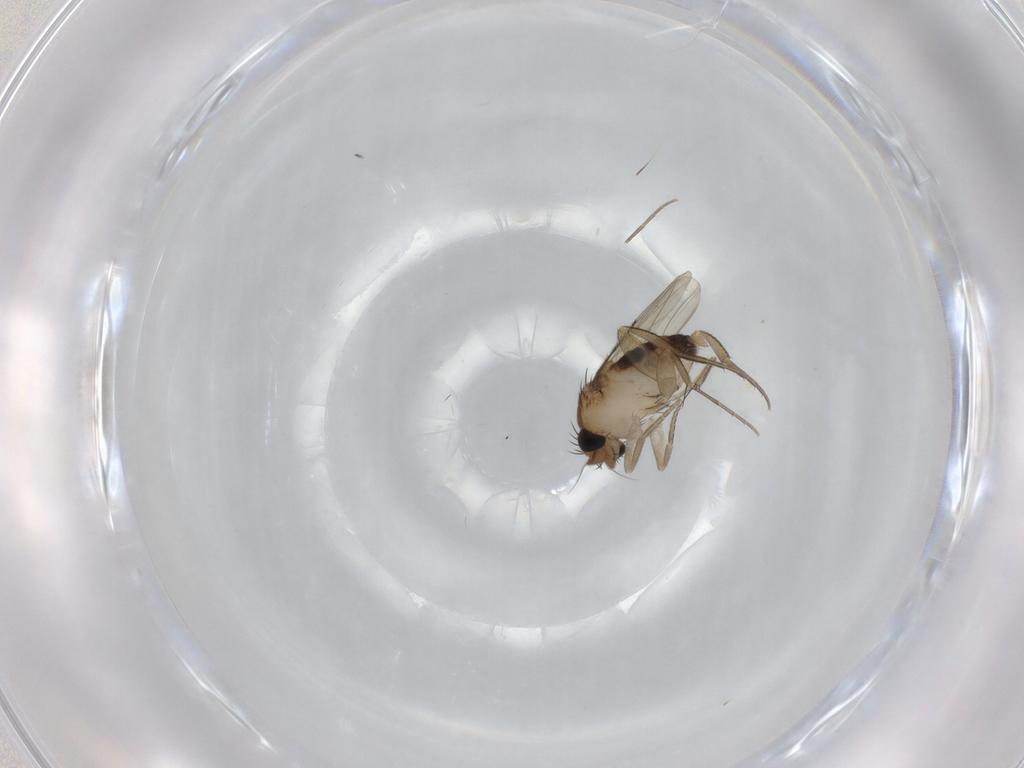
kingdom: Animalia
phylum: Arthropoda
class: Insecta
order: Diptera
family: Phoridae
